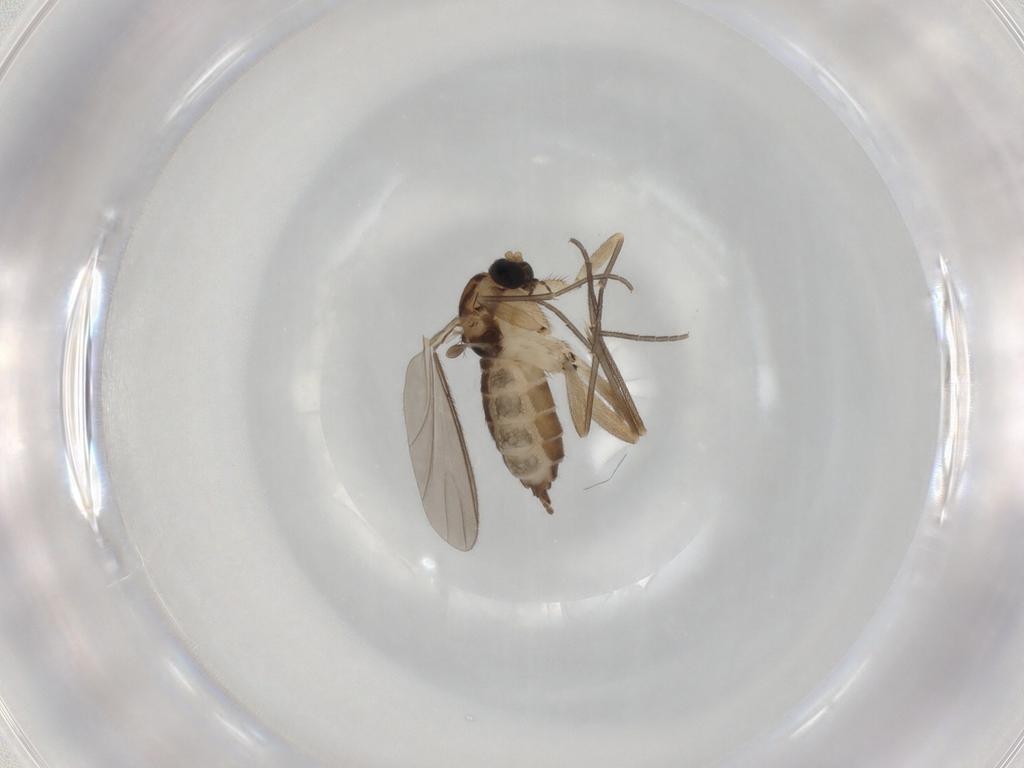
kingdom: Animalia
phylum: Arthropoda
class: Insecta
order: Diptera
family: Sciaridae
